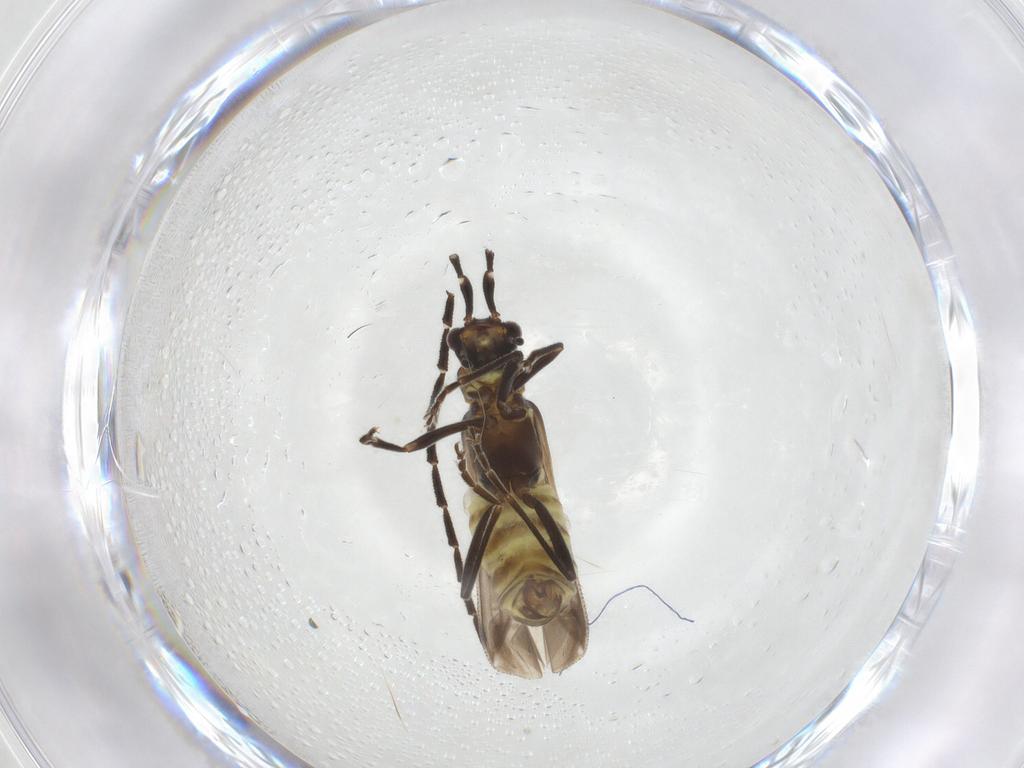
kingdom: Animalia
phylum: Arthropoda
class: Insecta
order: Coleoptera
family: Cantharidae
